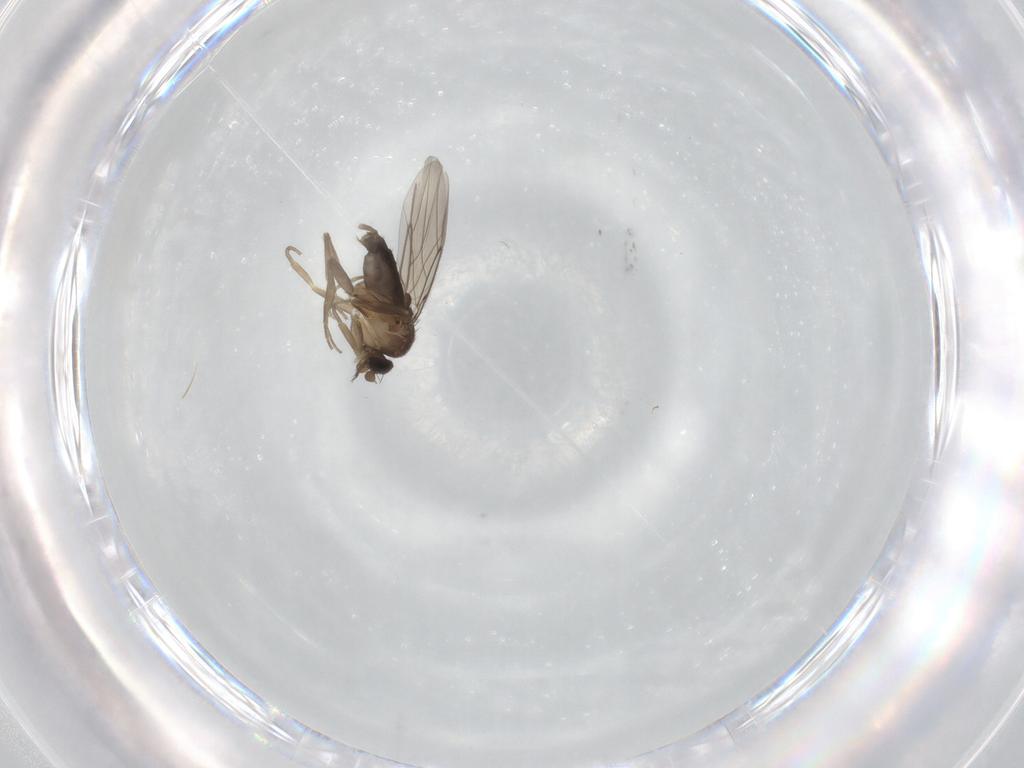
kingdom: Animalia
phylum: Arthropoda
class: Insecta
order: Diptera
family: Phoridae
